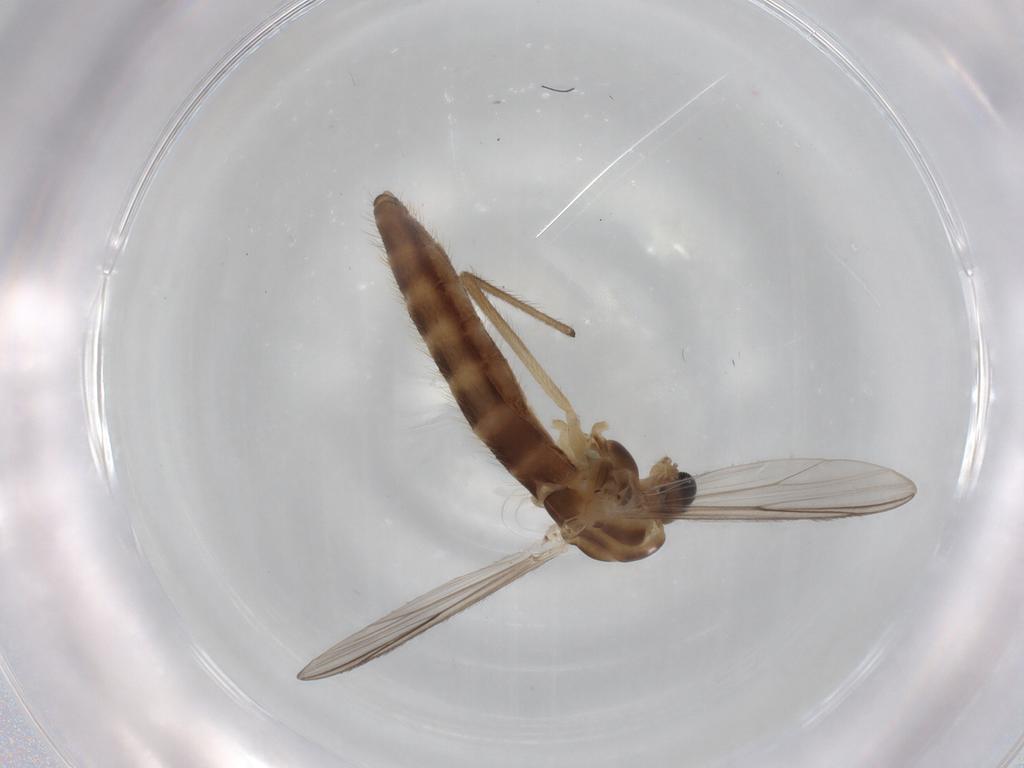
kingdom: Animalia
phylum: Arthropoda
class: Insecta
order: Diptera
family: Chironomidae
